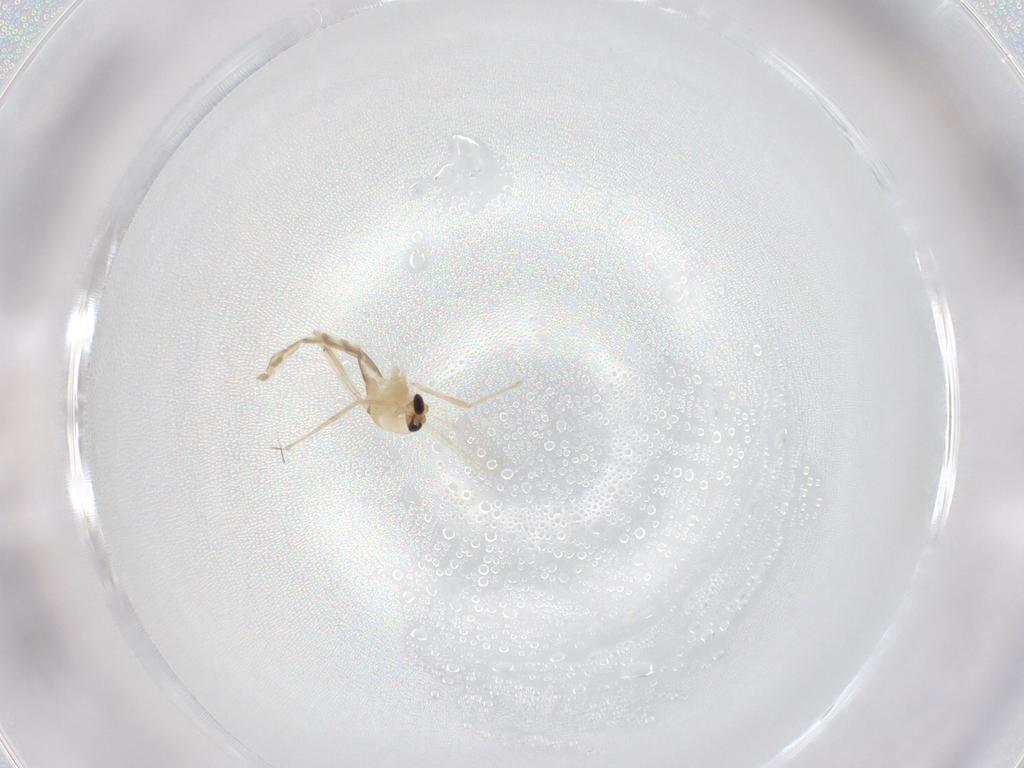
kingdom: Animalia
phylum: Arthropoda
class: Insecta
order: Diptera
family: Chironomidae
